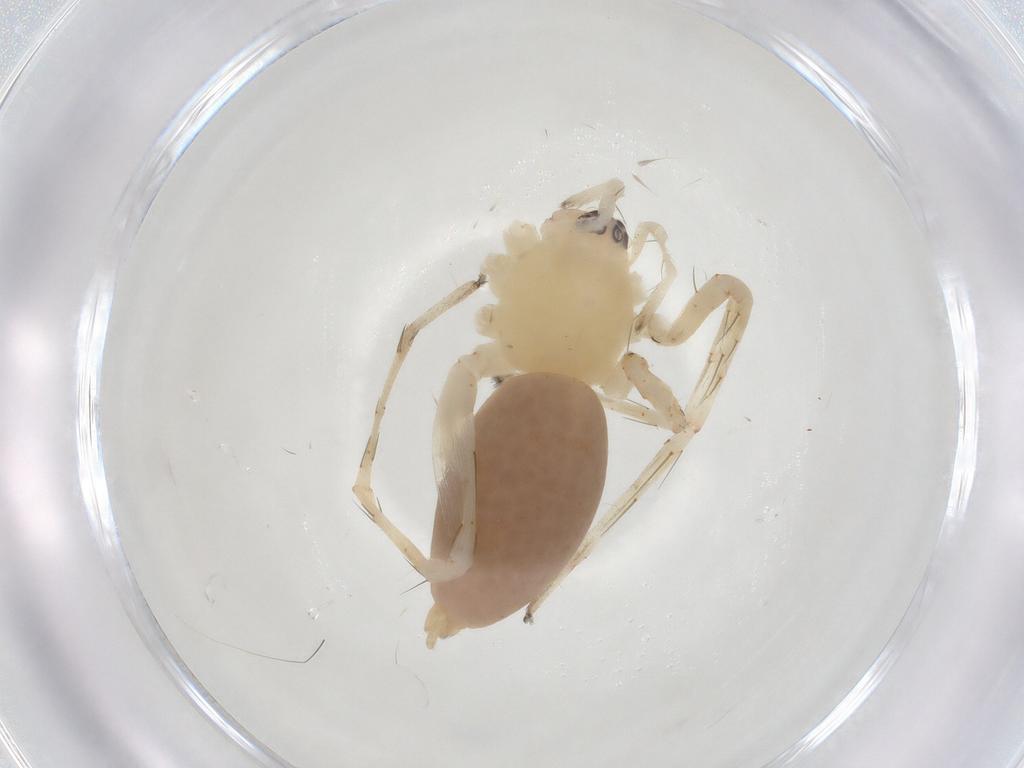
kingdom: Animalia
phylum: Arthropoda
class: Arachnida
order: Araneae
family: Anyphaenidae
